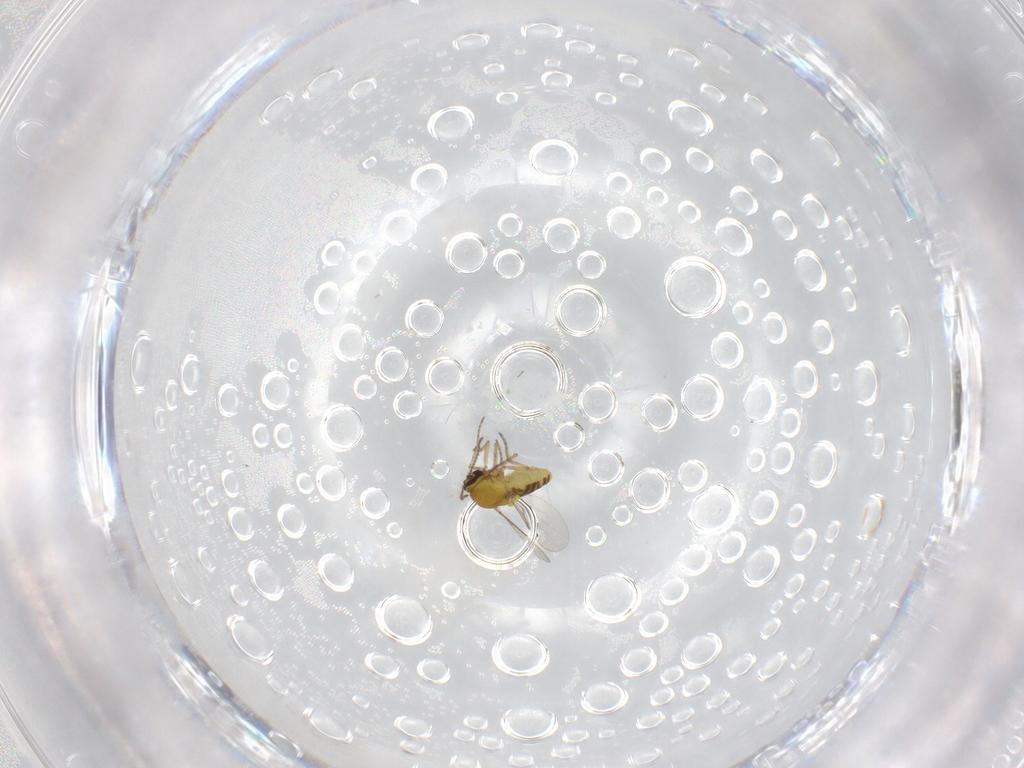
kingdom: Animalia
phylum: Arthropoda
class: Insecta
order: Diptera
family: Ceratopogonidae
